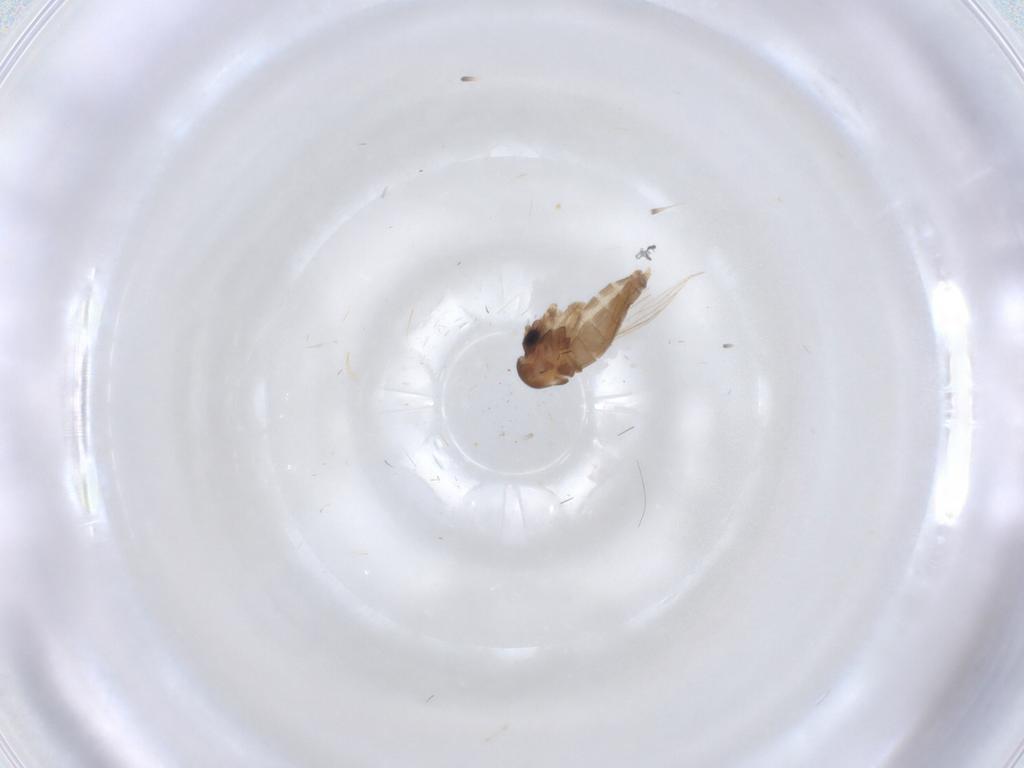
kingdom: Animalia
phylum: Arthropoda
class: Insecta
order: Diptera
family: Psychodidae
